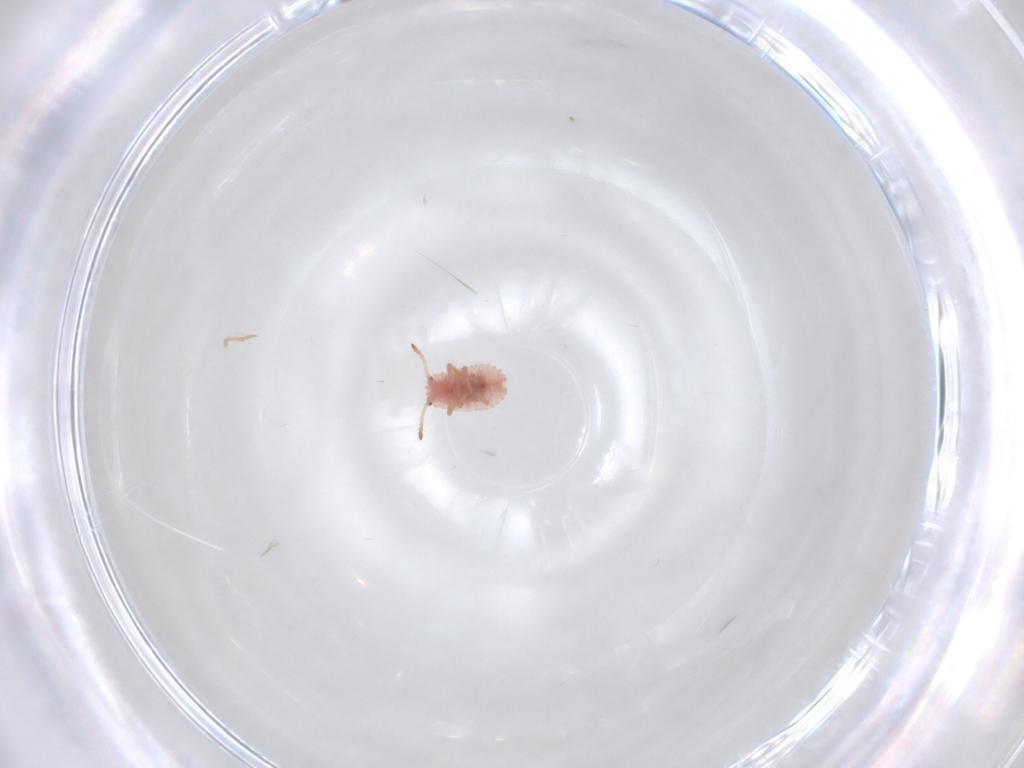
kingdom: Animalia
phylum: Arthropoda
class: Insecta
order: Hemiptera
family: Coccoidea_incertae_sedis
